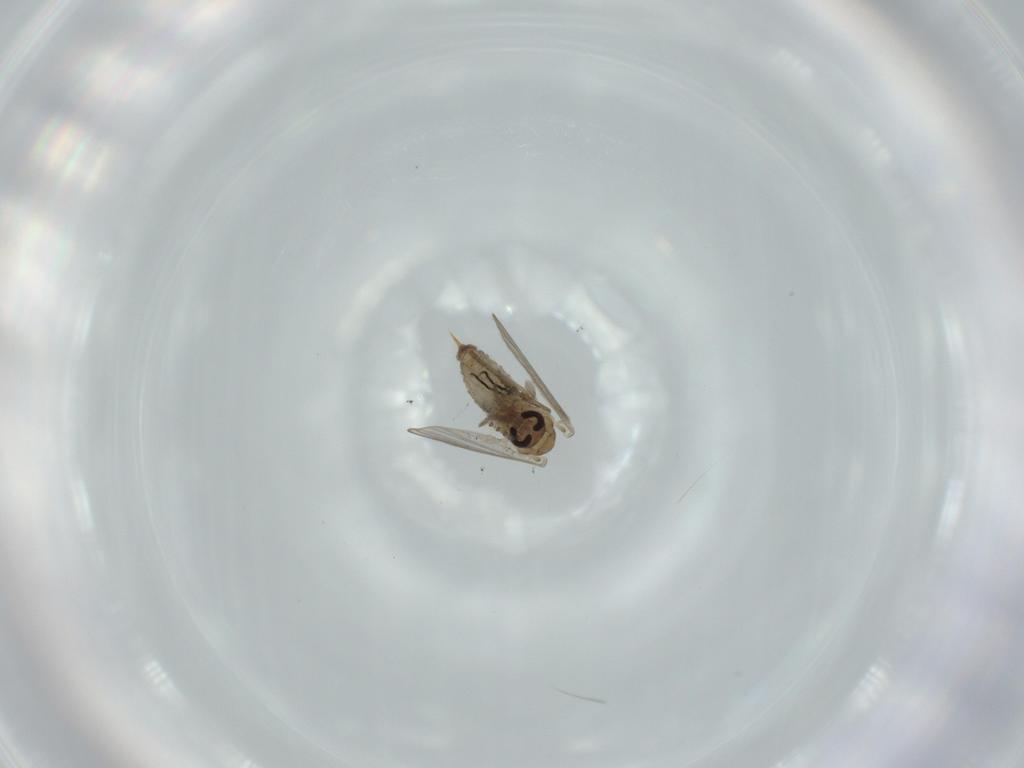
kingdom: Animalia
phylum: Arthropoda
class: Insecta
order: Diptera
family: Psychodidae
